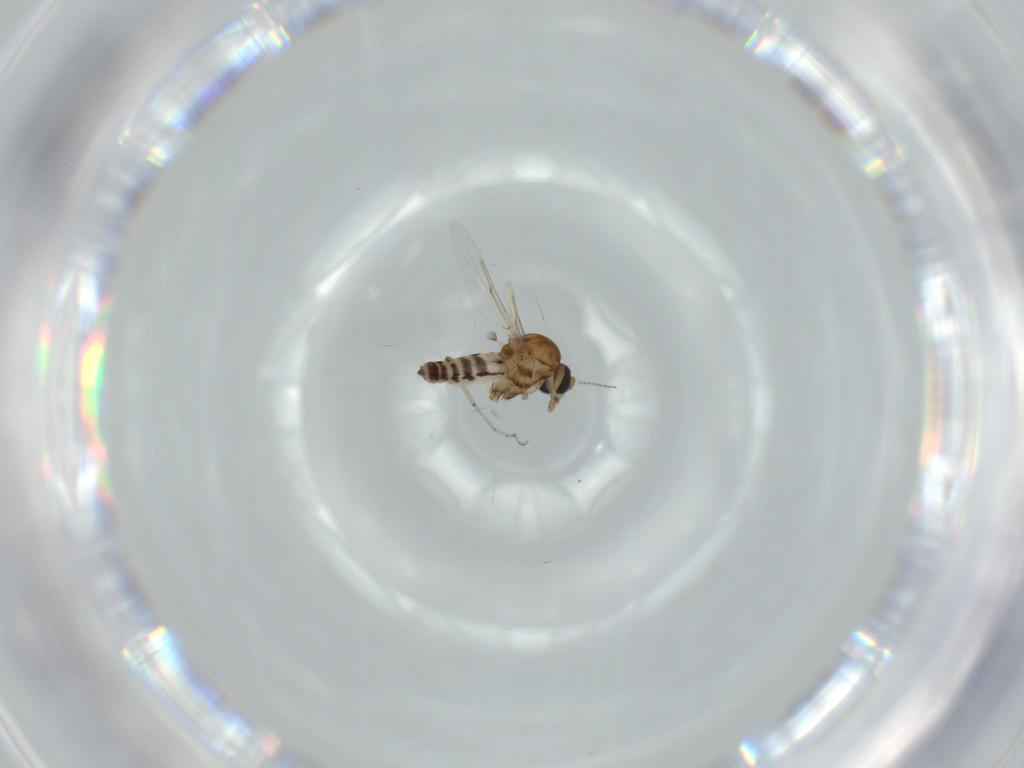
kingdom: Animalia
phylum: Arthropoda
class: Insecta
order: Diptera
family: Ceratopogonidae
